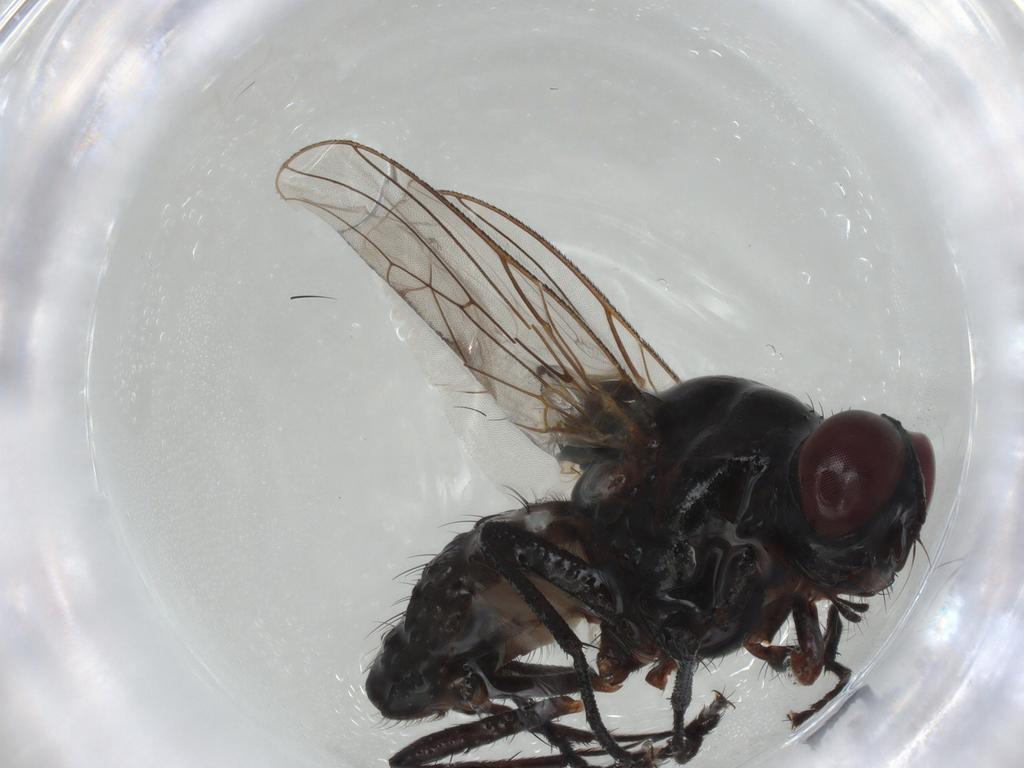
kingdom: Animalia
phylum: Arthropoda
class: Insecta
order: Diptera
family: Anthomyiidae
